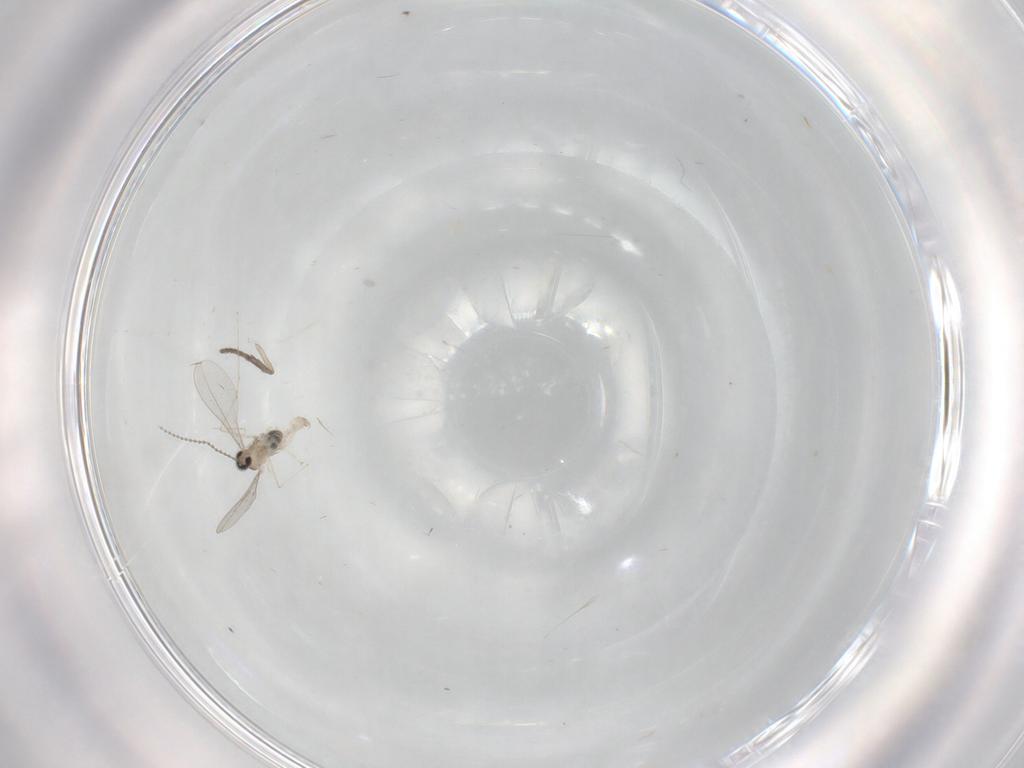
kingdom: Animalia
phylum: Arthropoda
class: Insecta
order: Diptera
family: Cecidomyiidae
